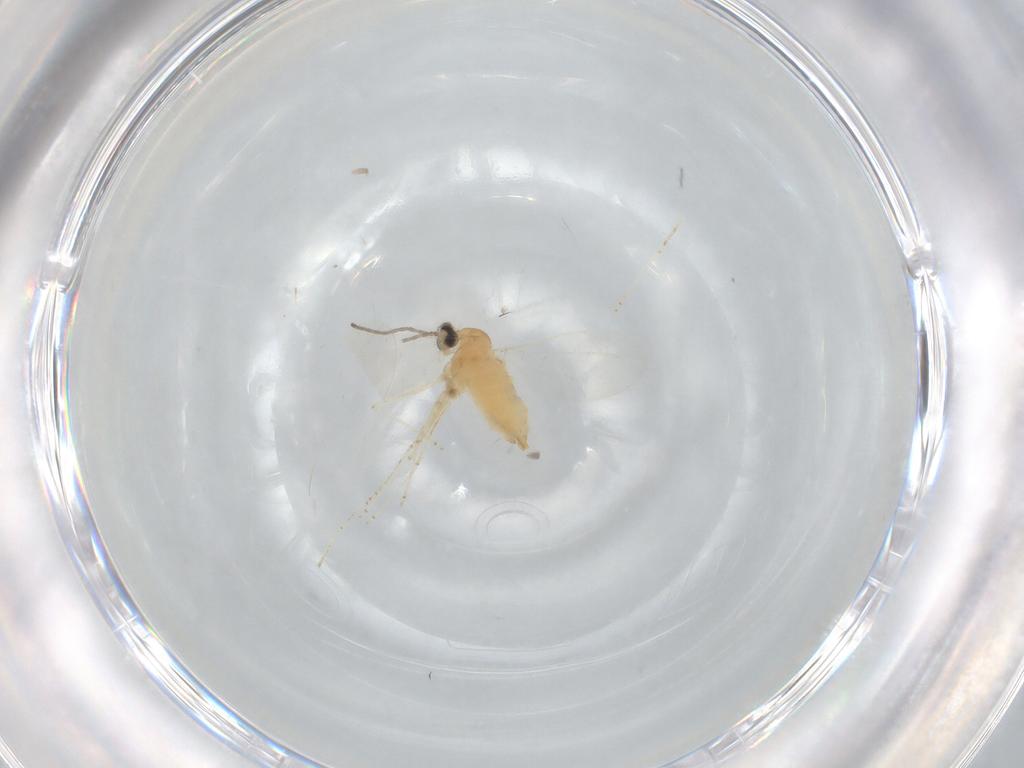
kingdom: Animalia
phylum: Arthropoda
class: Insecta
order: Diptera
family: Cecidomyiidae
